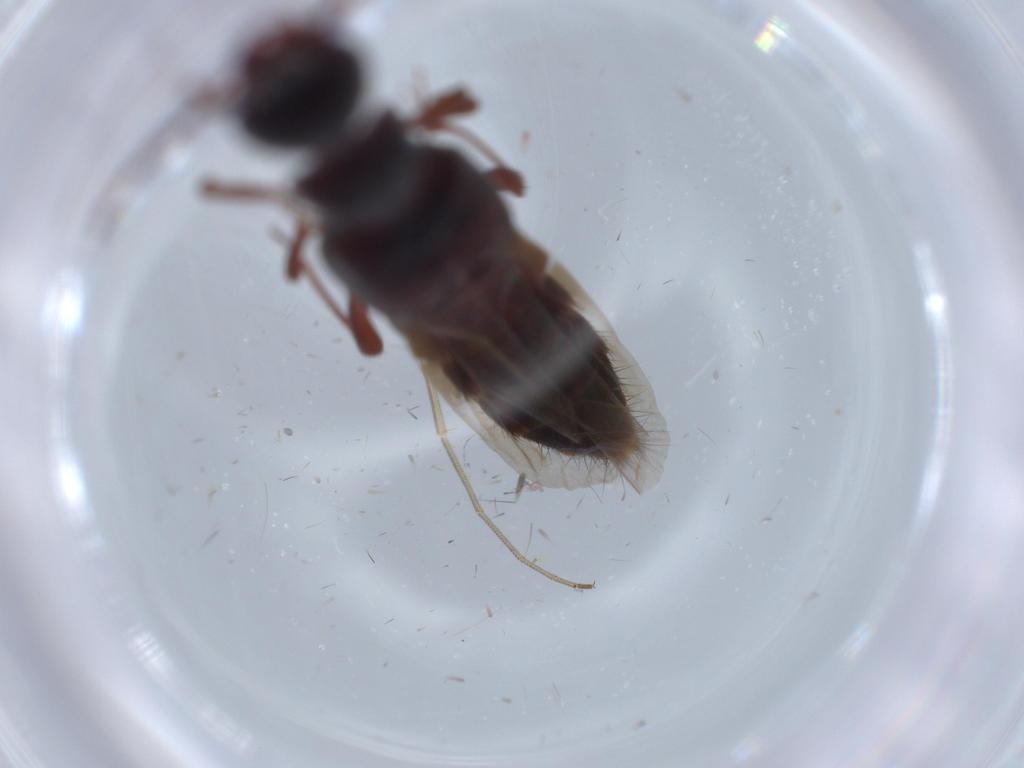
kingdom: Animalia
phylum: Arthropoda
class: Insecta
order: Coleoptera
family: Staphylinidae
